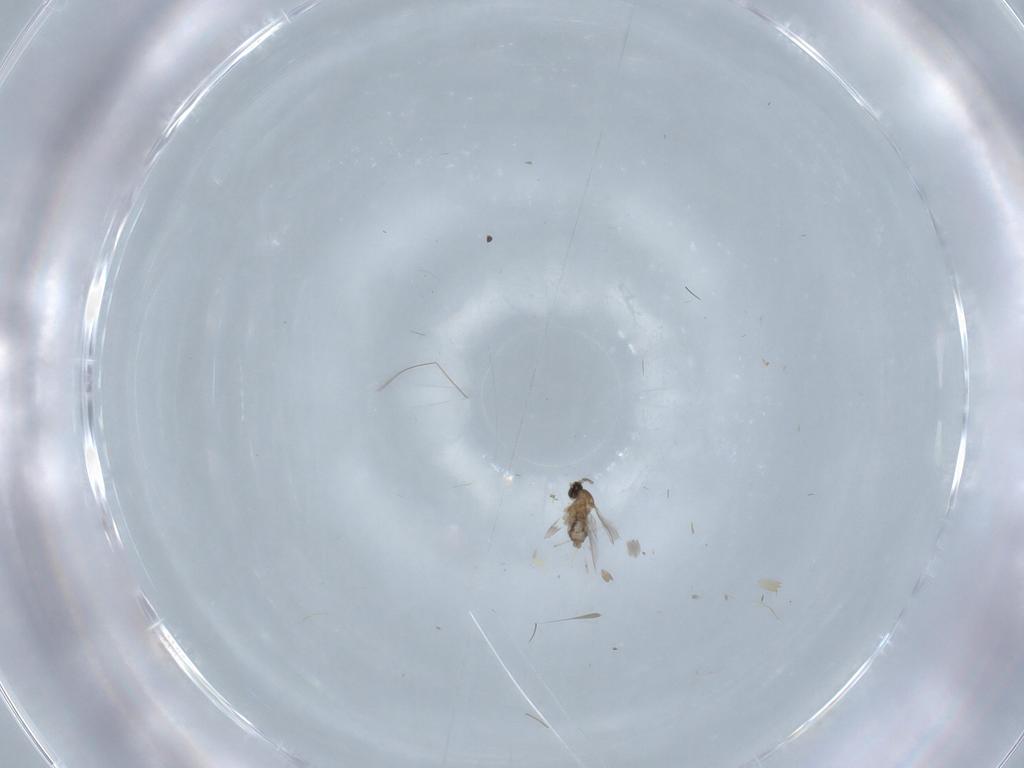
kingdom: Animalia
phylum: Arthropoda
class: Insecta
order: Diptera
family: Cecidomyiidae
